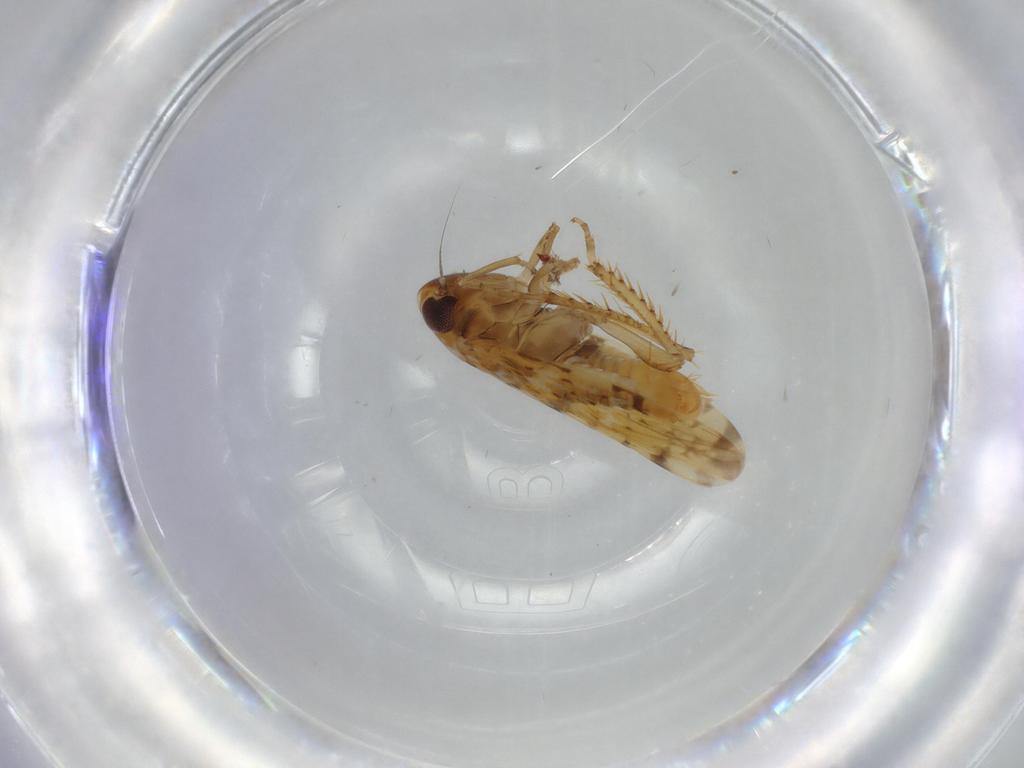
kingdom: Animalia
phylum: Arthropoda
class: Insecta
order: Hemiptera
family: Cicadellidae
